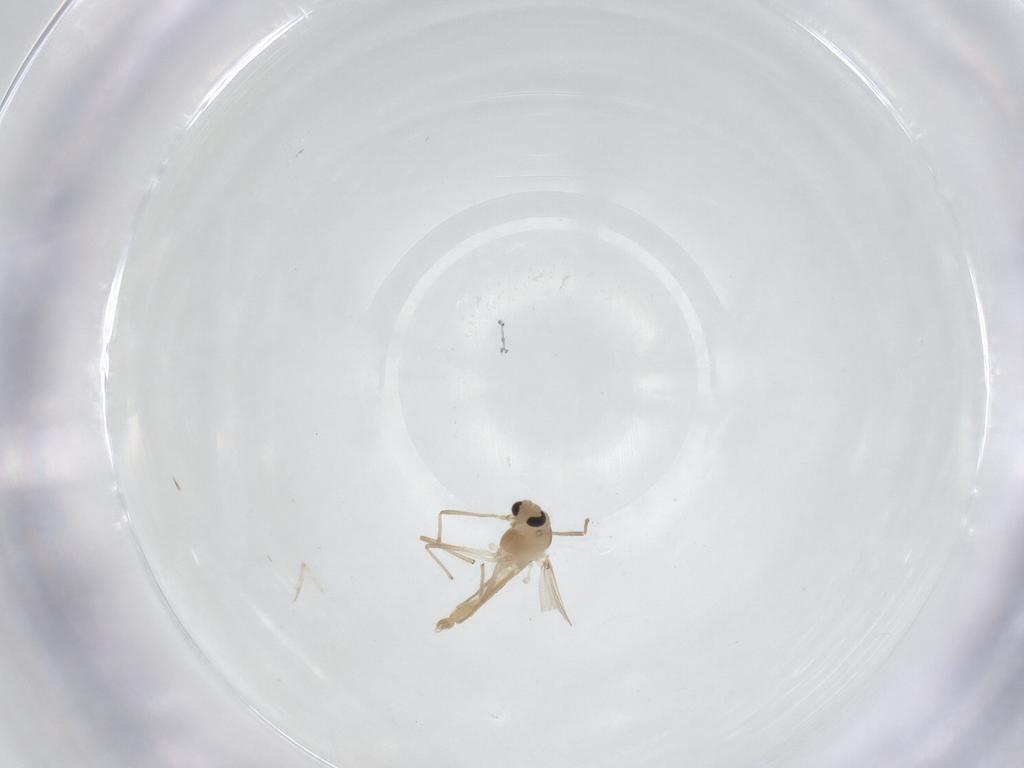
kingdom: Animalia
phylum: Arthropoda
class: Insecta
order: Diptera
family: Chironomidae
